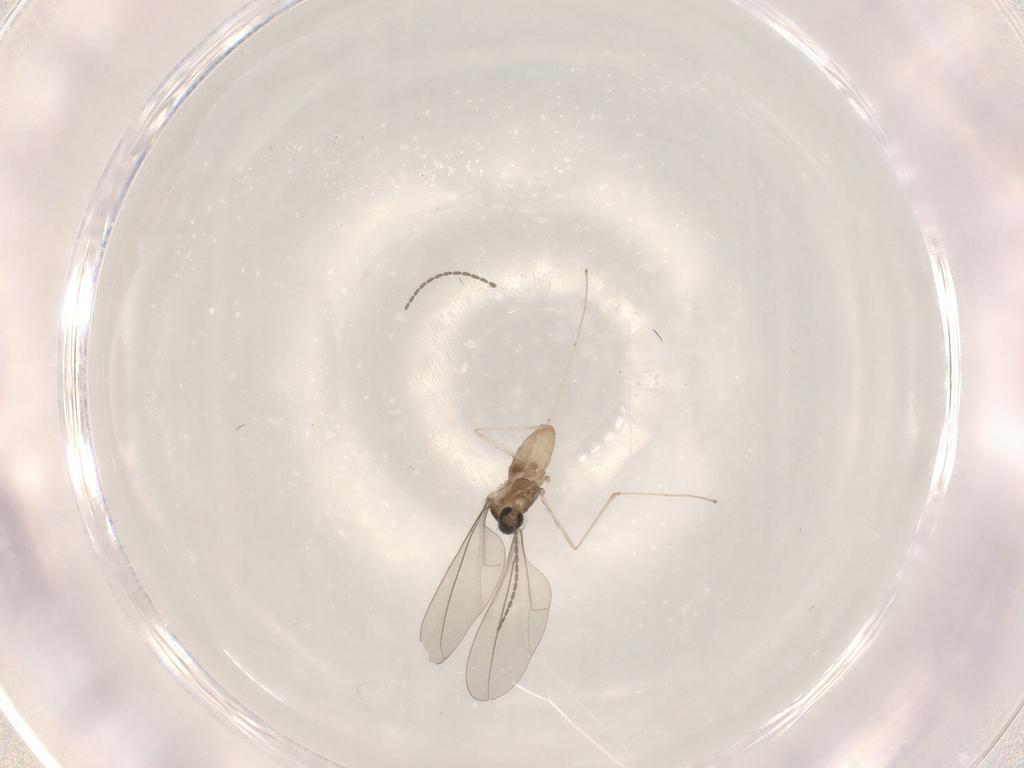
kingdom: Animalia
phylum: Arthropoda
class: Insecta
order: Diptera
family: Cecidomyiidae
